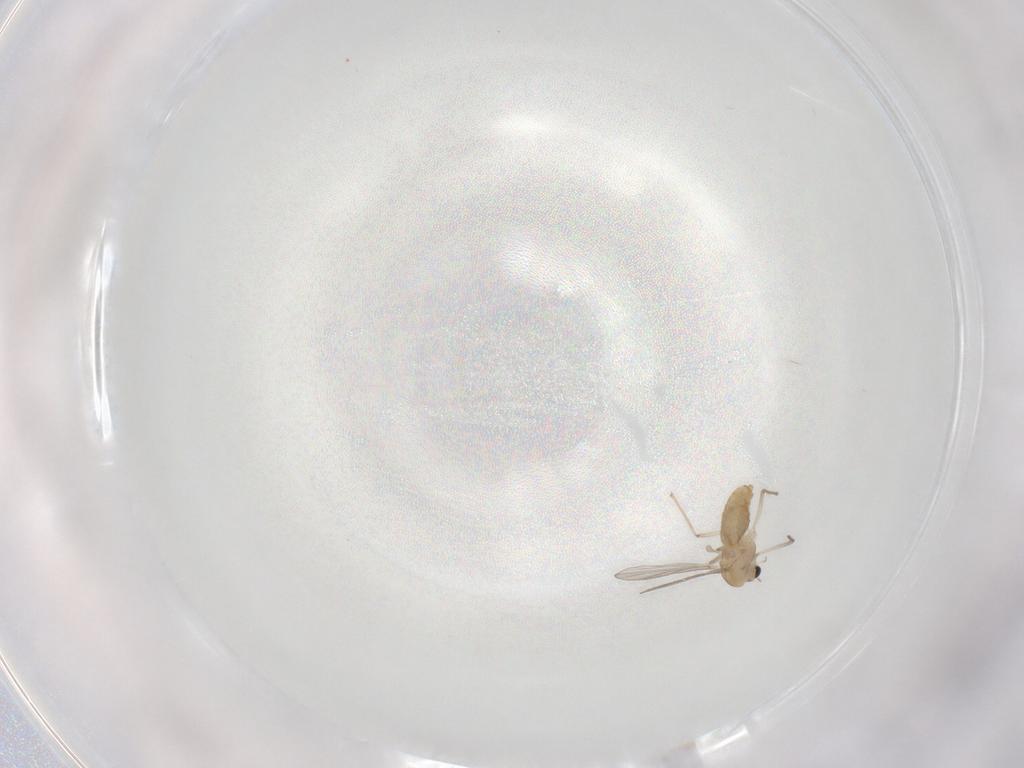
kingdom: Animalia
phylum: Arthropoda
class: Insecta
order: Diptera
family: Chironomidae
